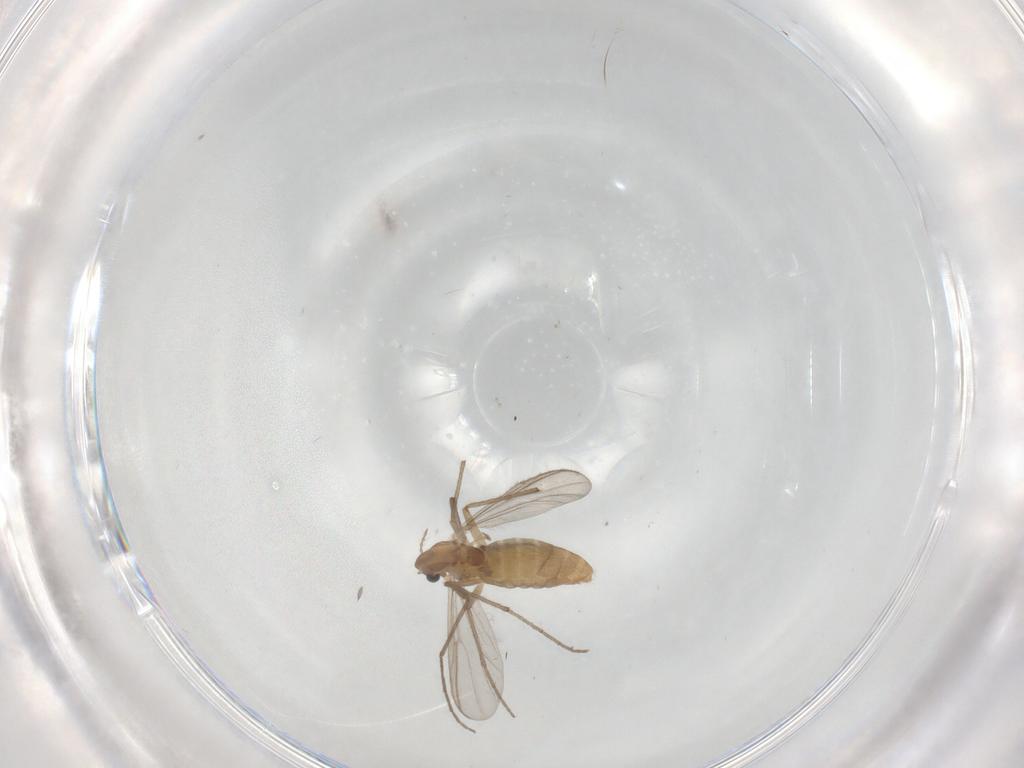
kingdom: Animalia
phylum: Arthropoda
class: Insecta
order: Diptera
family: Chironomidae
